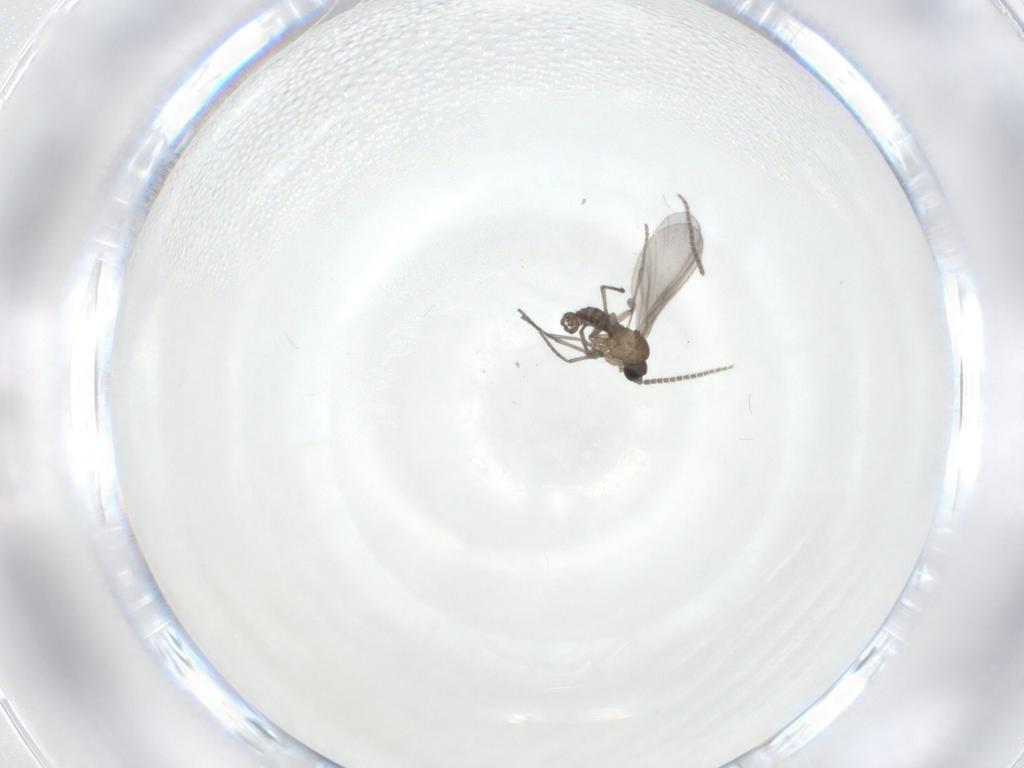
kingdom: Animalia
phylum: Arthropoda
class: Insecta
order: Diptera
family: Sciaridae
